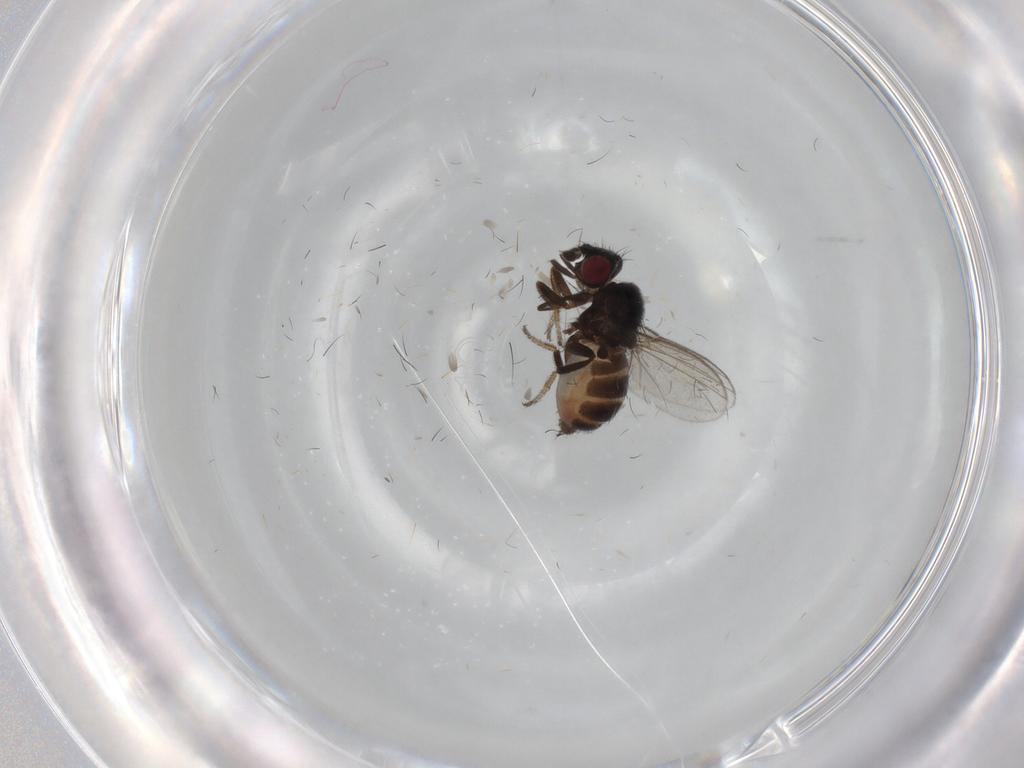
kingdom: Animalia
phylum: Arthropoda
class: Insecta
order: Diptera
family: Milichiidae
